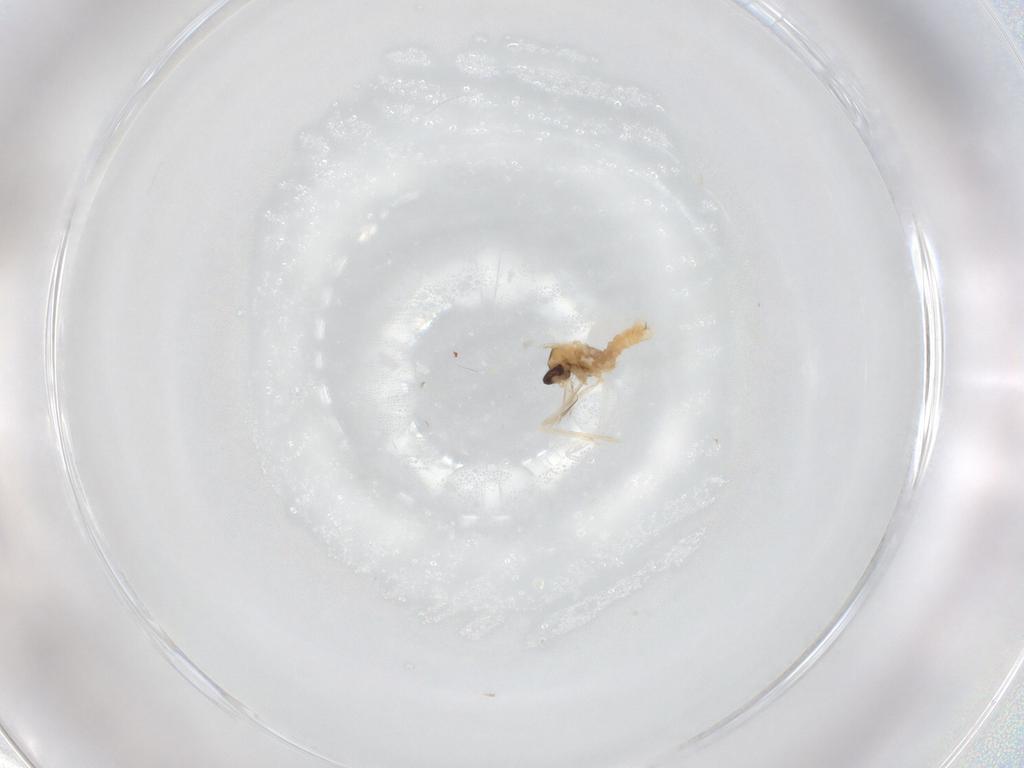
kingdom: Animalia
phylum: Arthropoda
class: Insecta
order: Diptera
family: Cecidomyiidae
